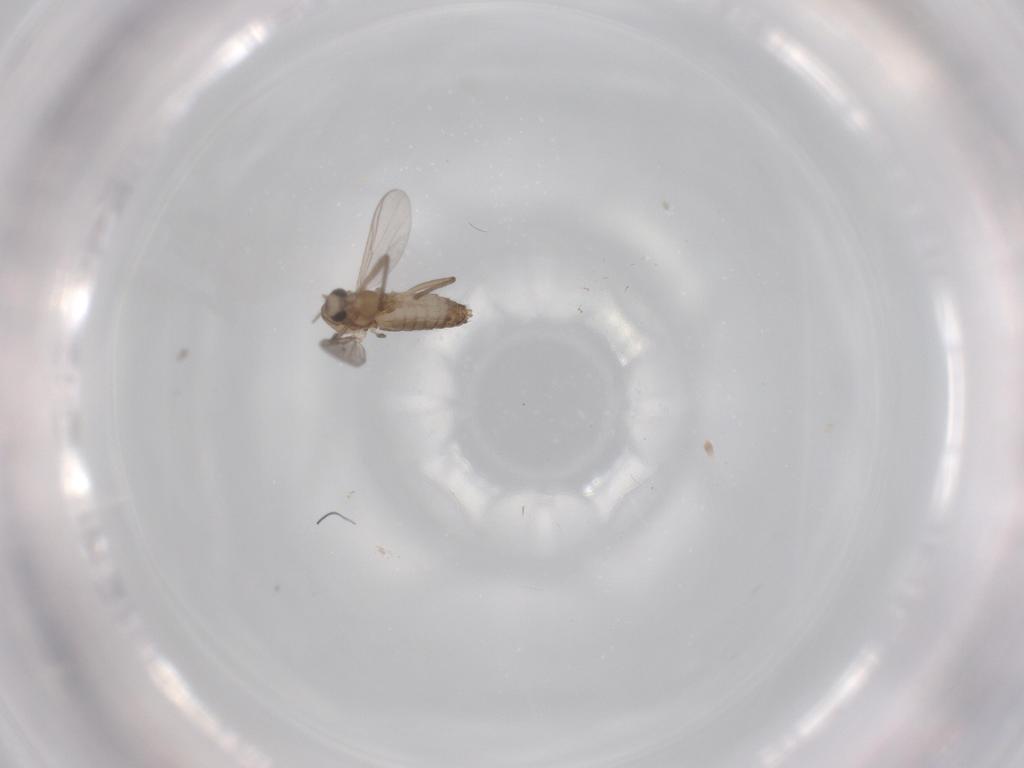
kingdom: Animalia
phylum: Arthropoda
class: Insecta
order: Diptera
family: Chironomidae
